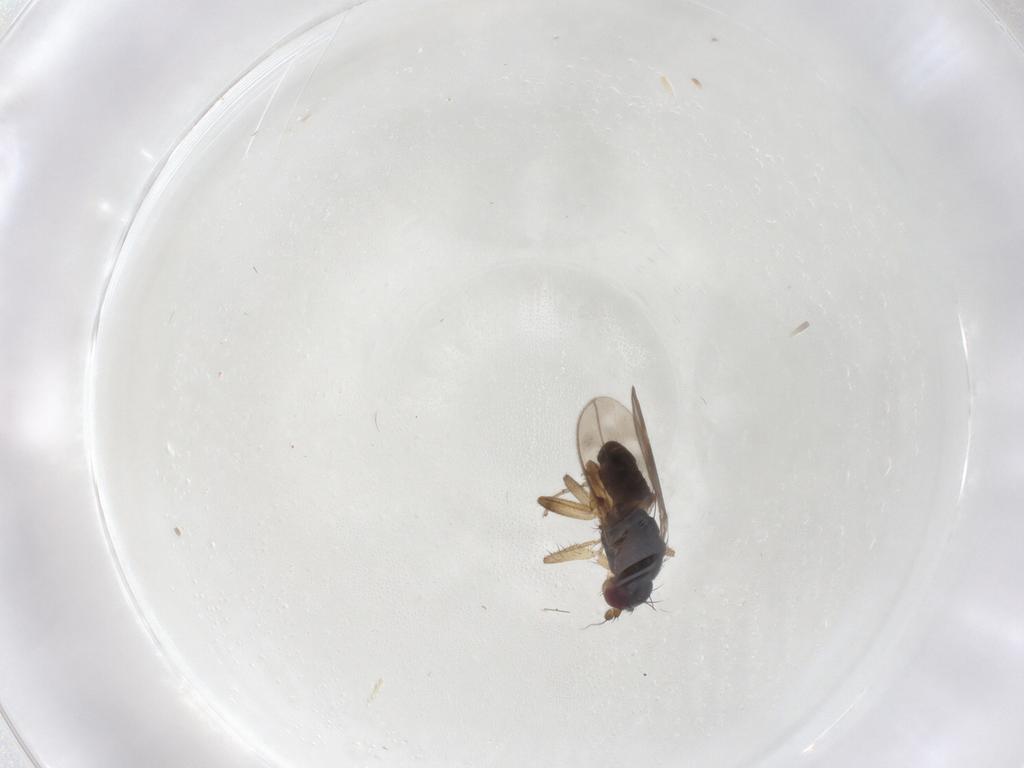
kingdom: Animalia
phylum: Arthropoda
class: Insecta
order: Diptera
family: Sphaeroceridae
